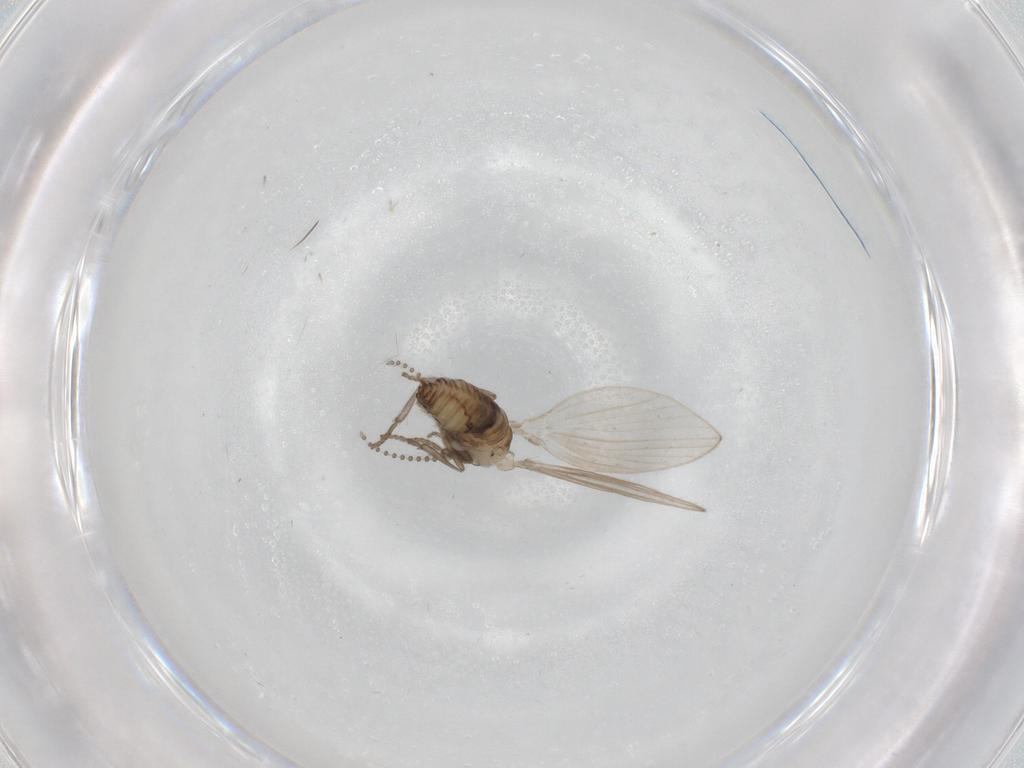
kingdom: Animalia
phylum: Arthropoda
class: Insecta
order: Diptera
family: Psychodidae
